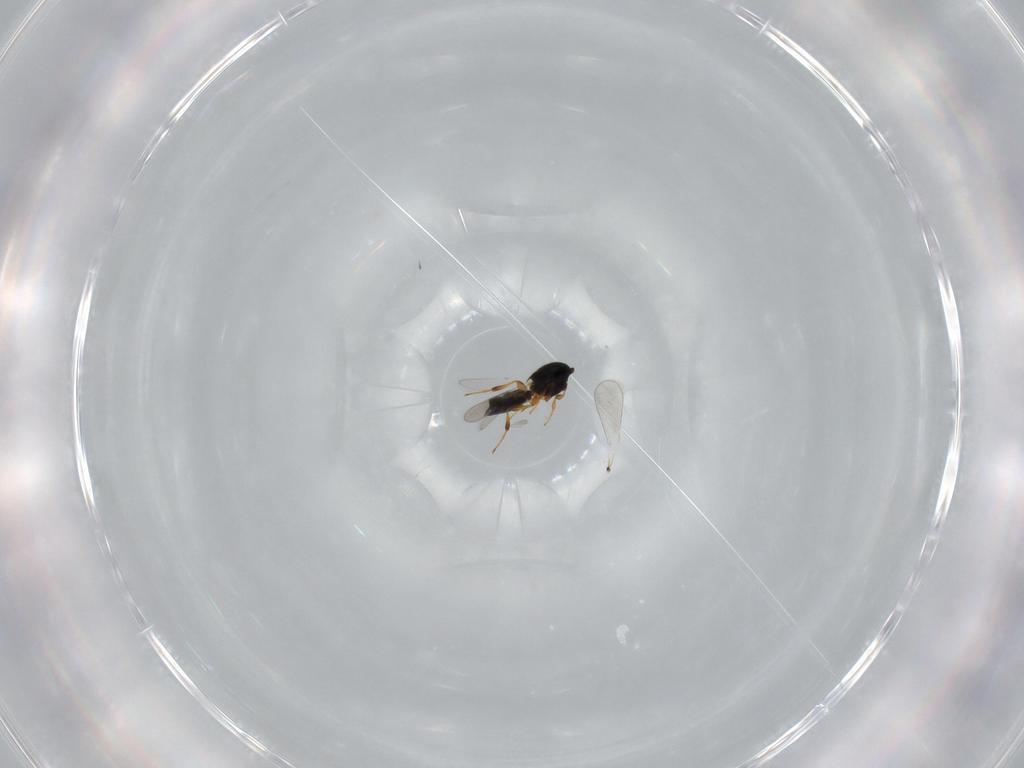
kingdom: Animalia
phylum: Arthropoda
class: Insecta
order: Hymenoptera
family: Platygastridae
